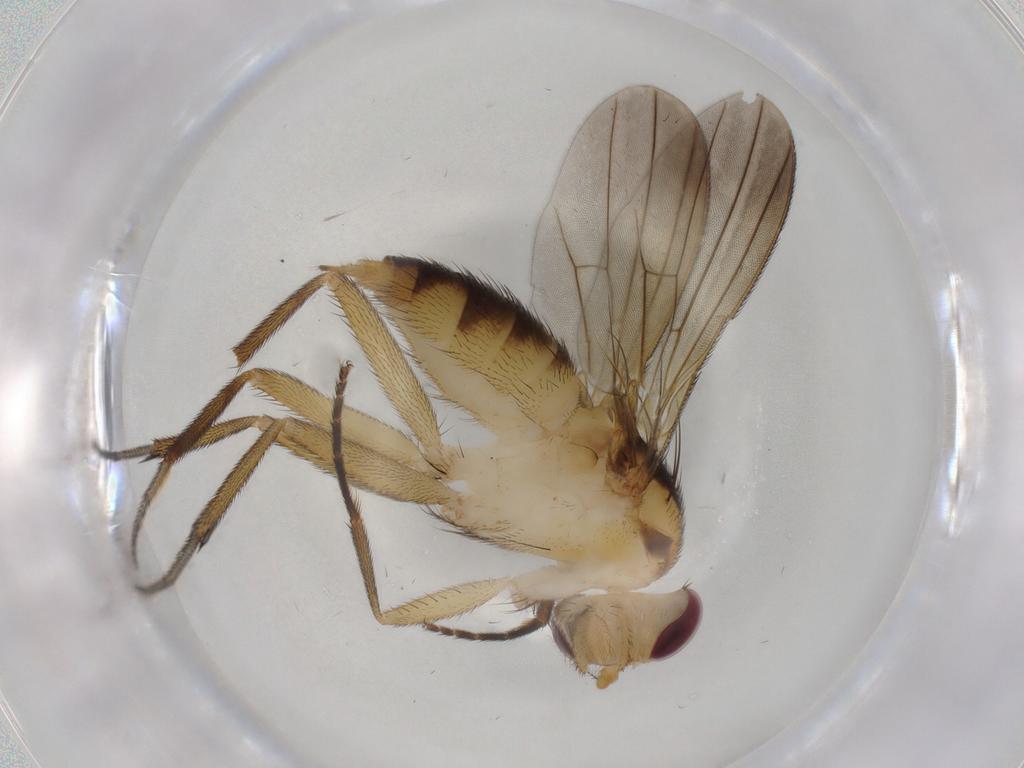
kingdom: Animalia
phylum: Arthropoda
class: Insecta
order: Diptera
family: Clusiidae
